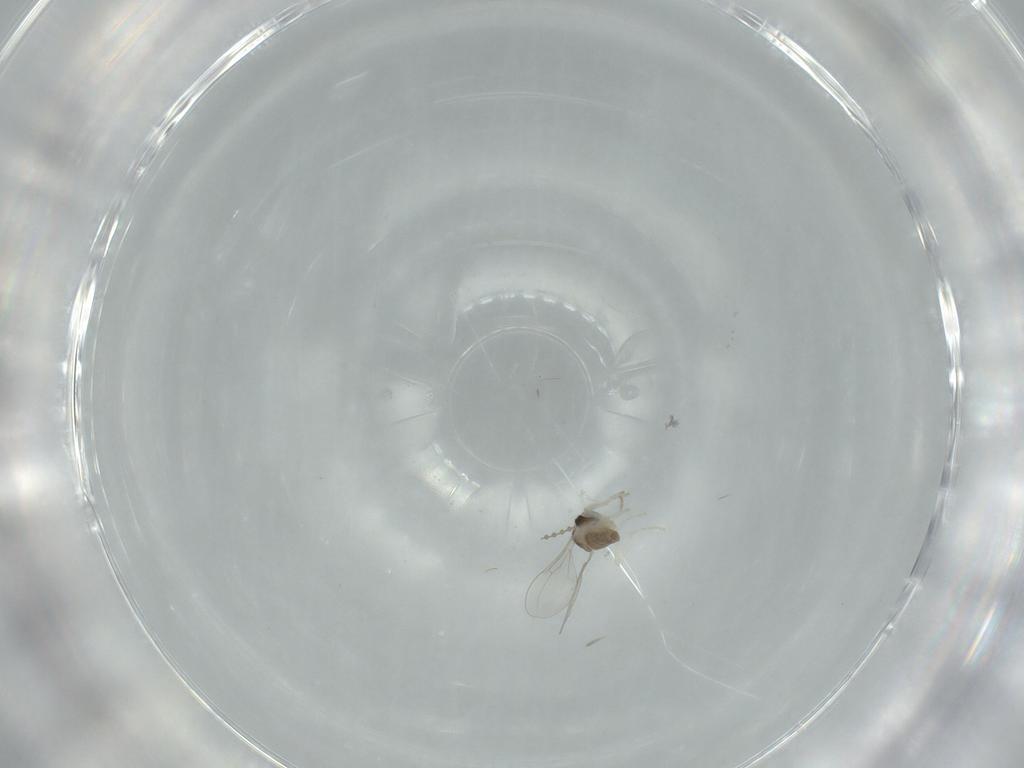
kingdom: Animalia
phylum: Arthropoda
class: Insecta
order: Diptera
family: Cecidomyiidae
